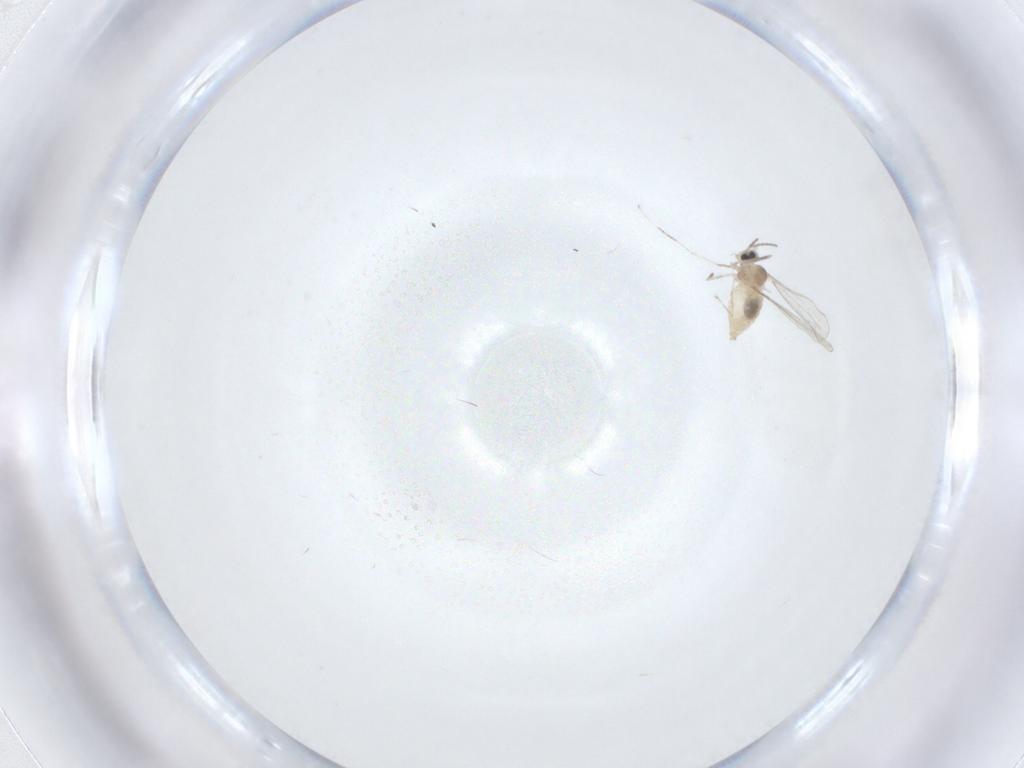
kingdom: Animalia
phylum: Arthropoda
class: Insecta
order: Diptera
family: Cecidomyiidae
